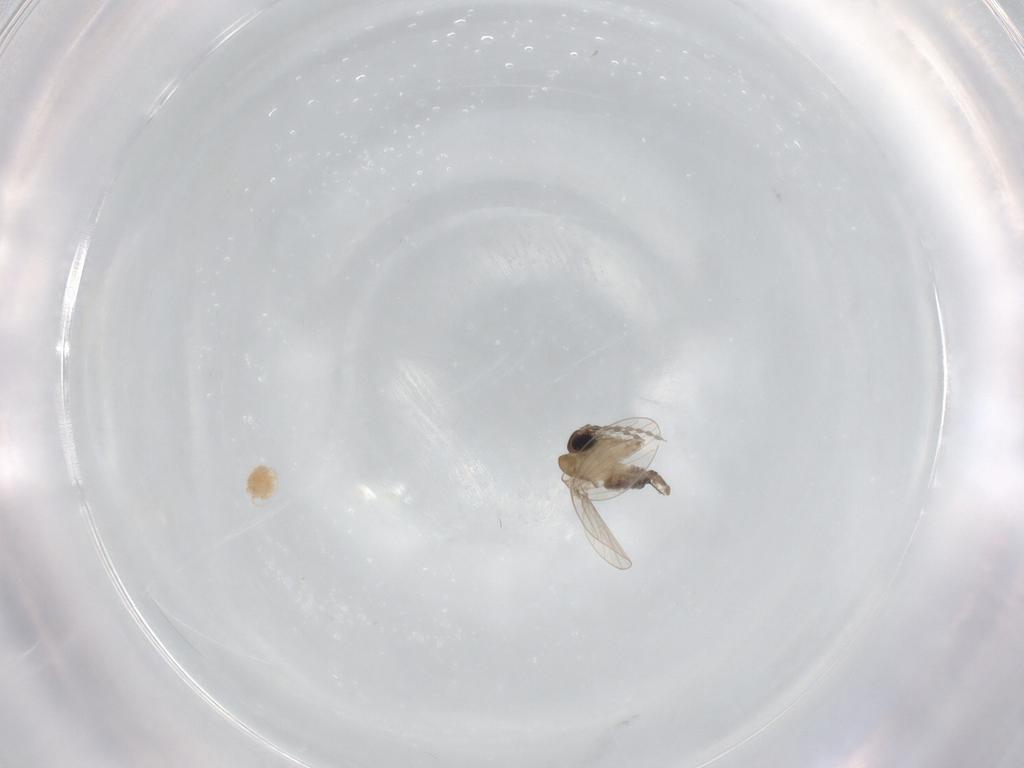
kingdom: Animalia
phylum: Arthropoda
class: Insecta
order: Diptera
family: Psychodidae
